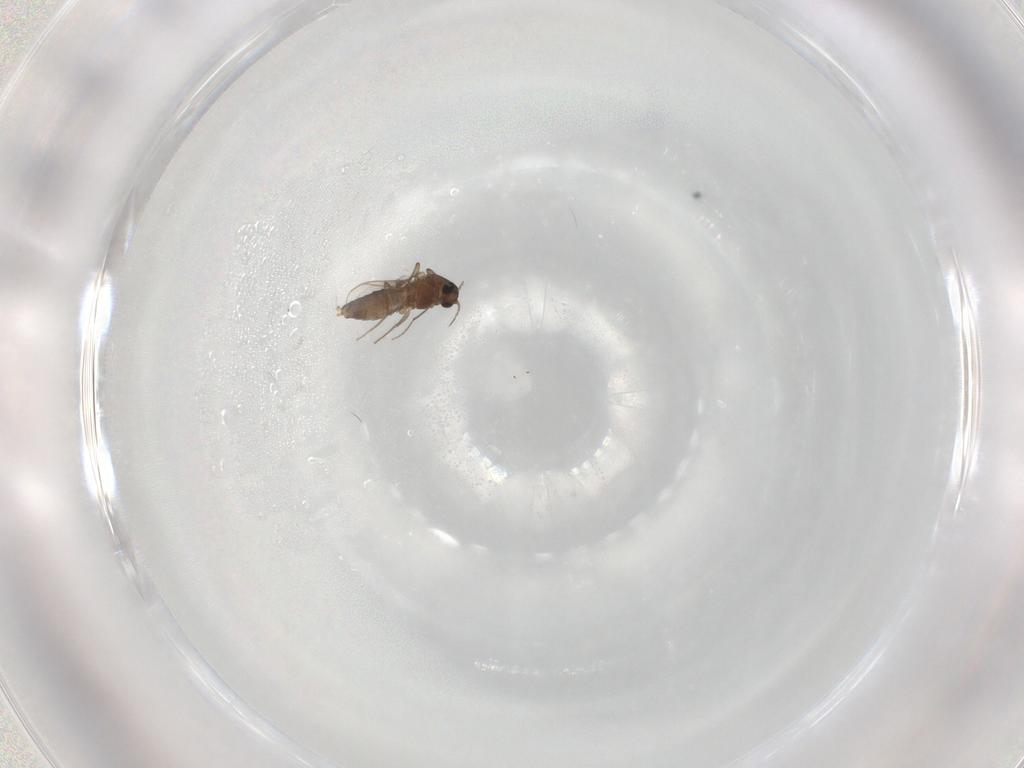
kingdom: Animalia
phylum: Arthropoda
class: Insecta
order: Diptera
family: Chironomidae
